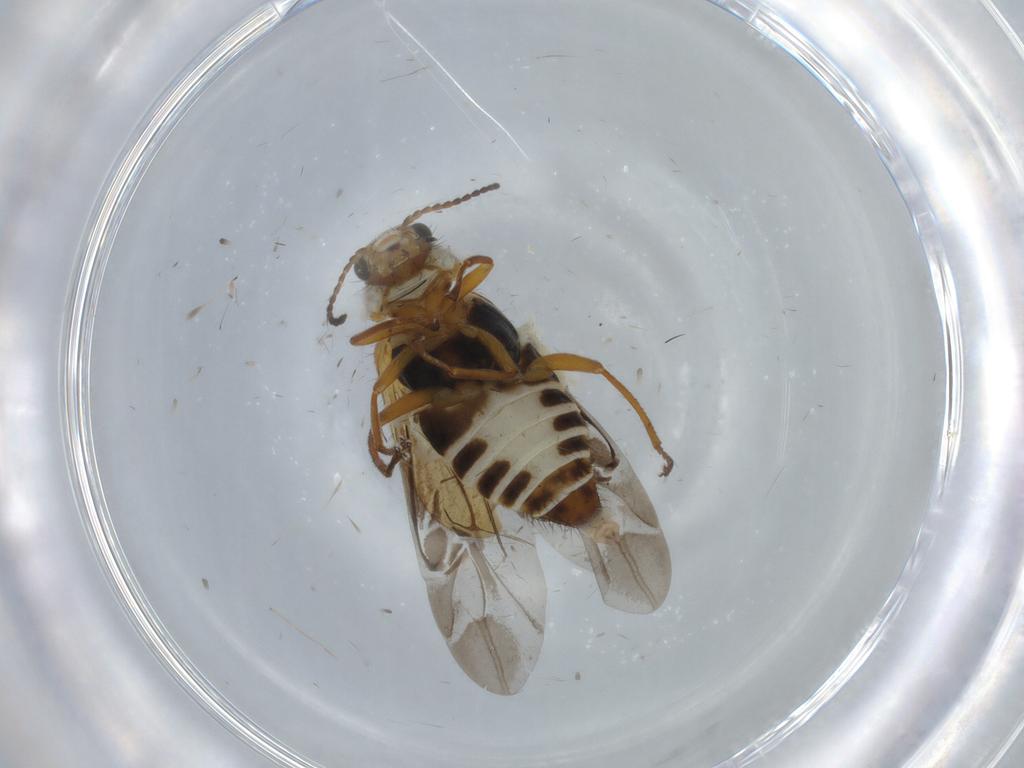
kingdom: Animalia
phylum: Arthropoda
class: Insecta
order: Coleoptera
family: Melyridae
